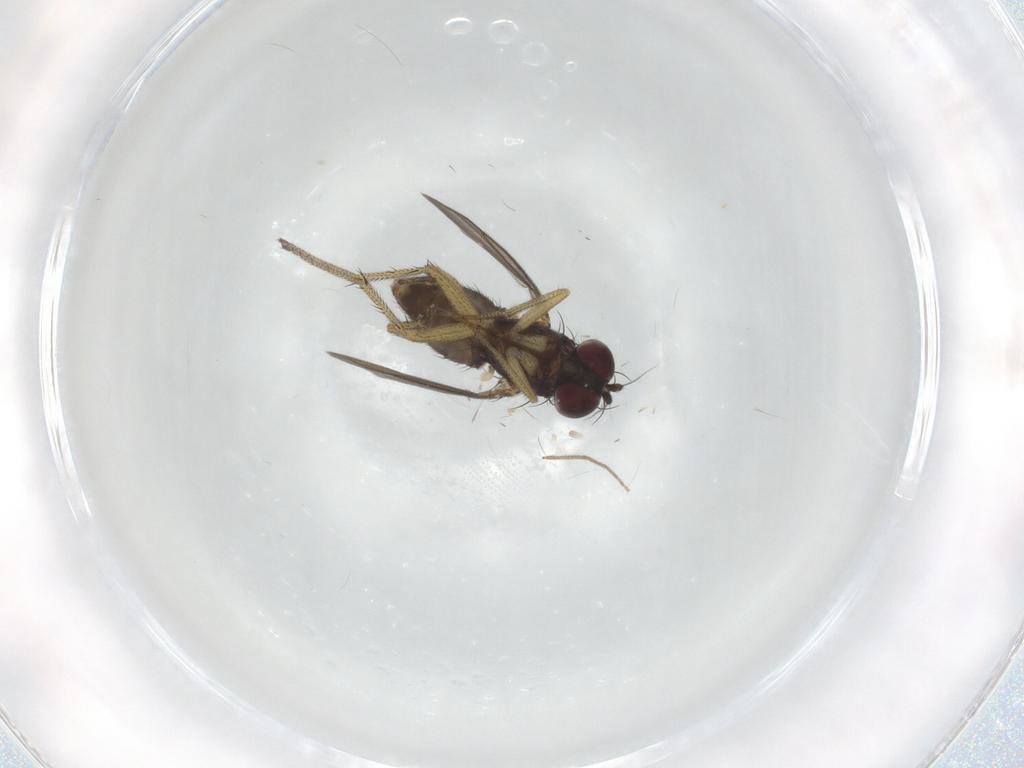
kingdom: Animalia
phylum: Arthropoda
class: Insecta
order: Diptera
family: Dolichopodidae
